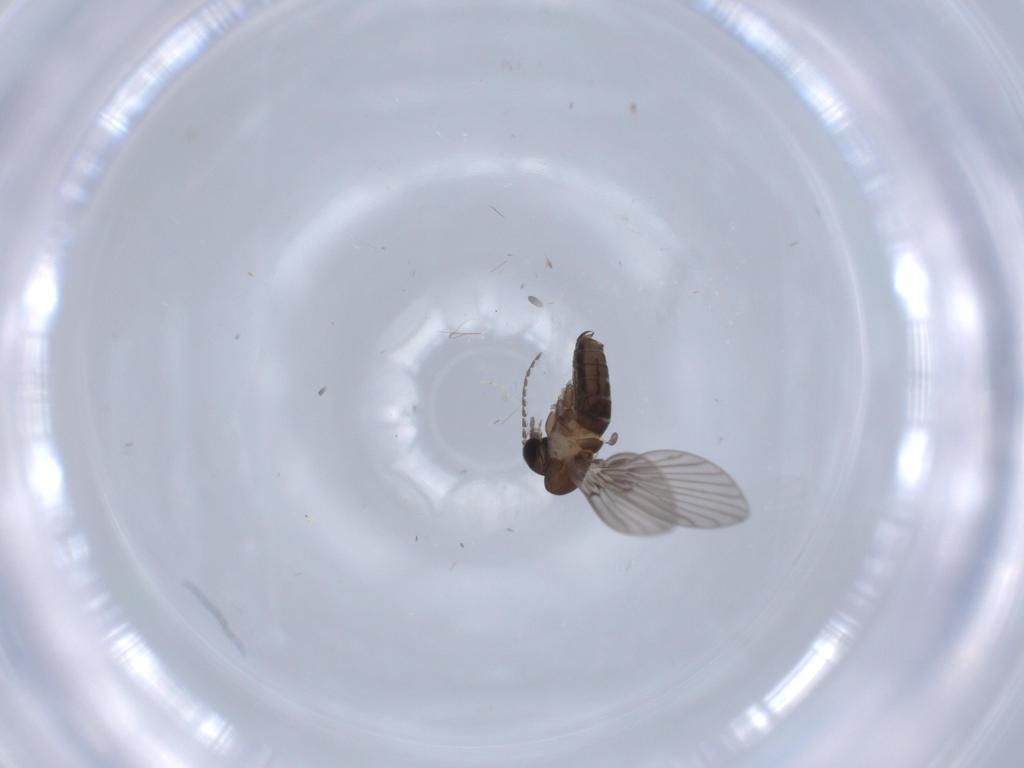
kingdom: Animalia
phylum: Arthropoda
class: Insecta
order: Diptera
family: Psychodidae
